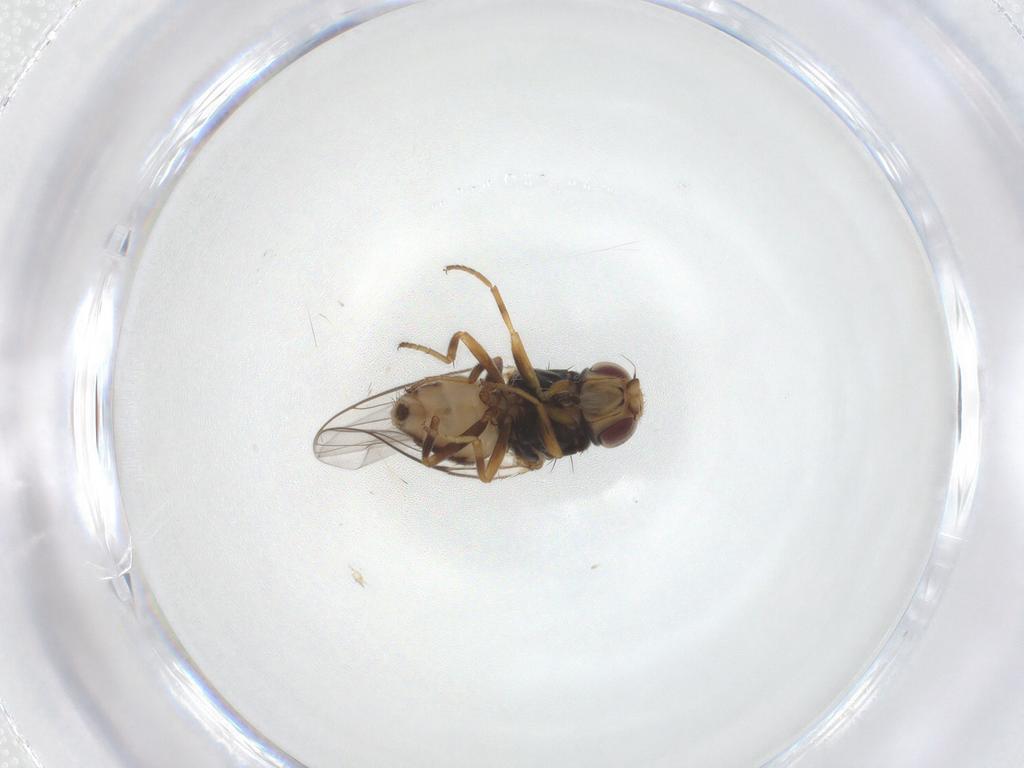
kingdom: Animalia
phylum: Arthropoda
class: Insecta
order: Diptera
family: Chloropidae
